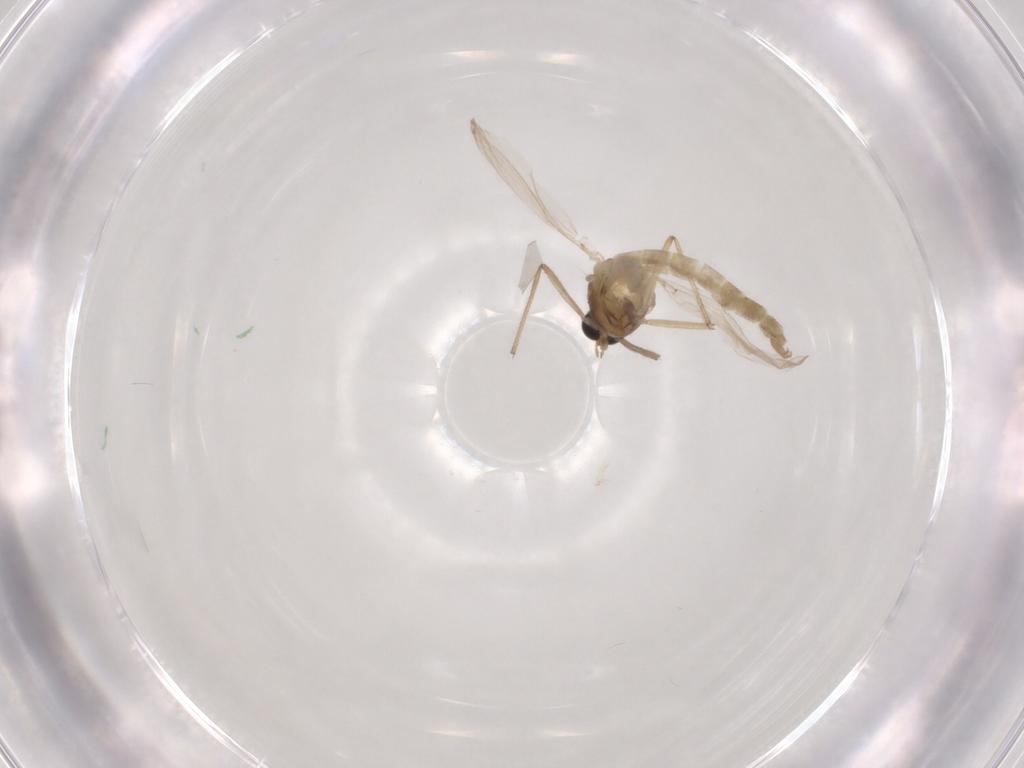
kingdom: Animalia
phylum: Arthropoda
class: Insecta
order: Diptera
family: Chironomidae
